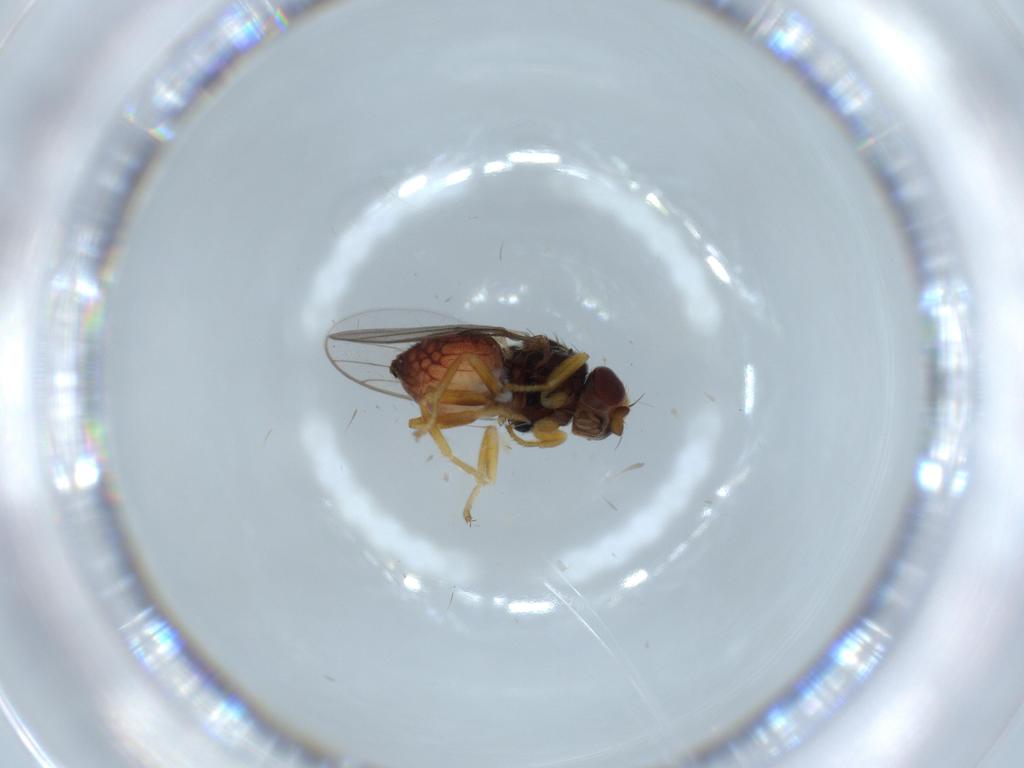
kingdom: Animalia
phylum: Arthropoda
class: Insecta
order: Diptera
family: Chloropidae
